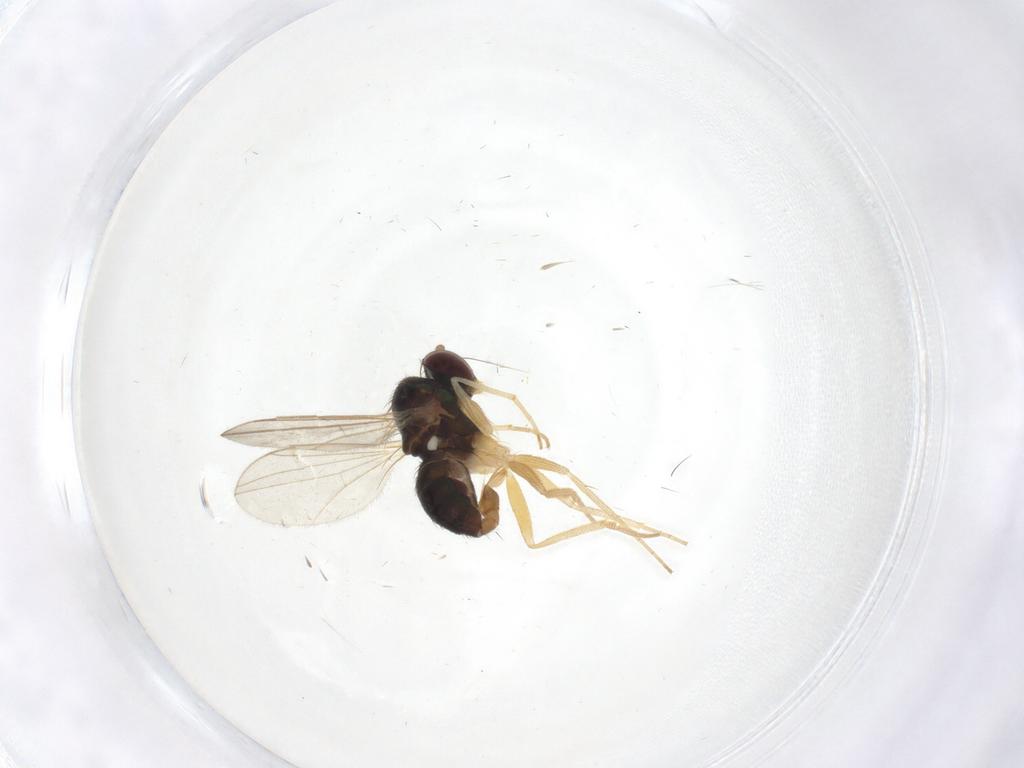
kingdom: Animalia
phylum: Arthropoda
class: Insecta
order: Diptera
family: Dolichopodidae
